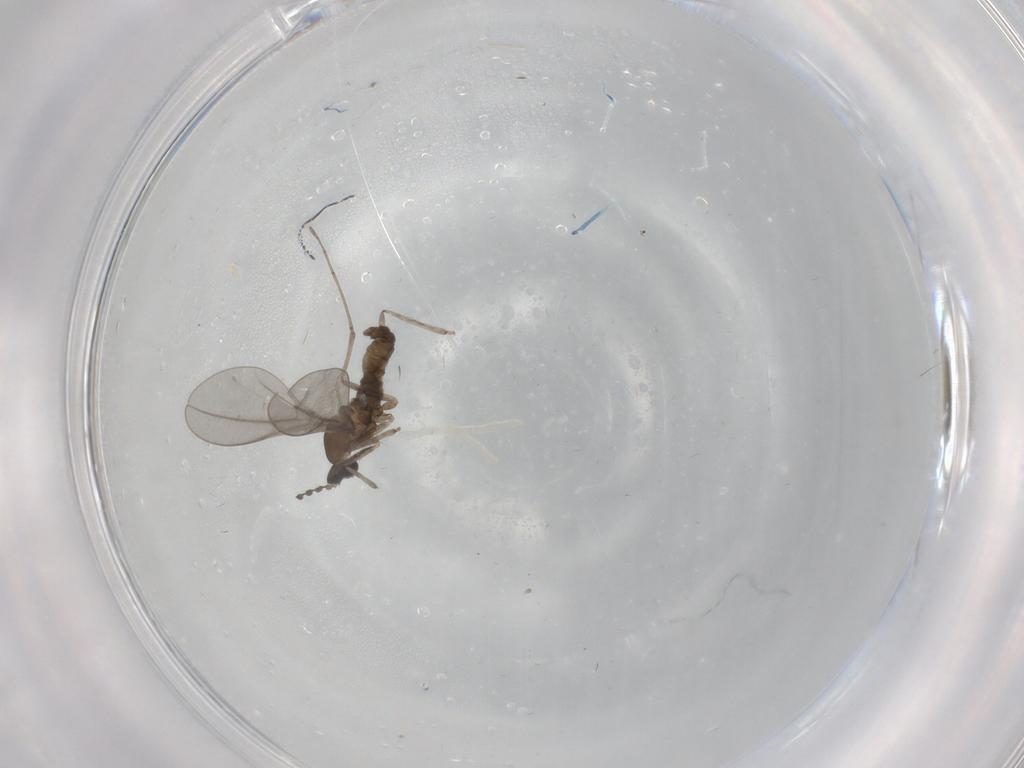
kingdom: Animalia
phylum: Arthropoda
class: Insecta
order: Diptera
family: Cecidomyiidae
